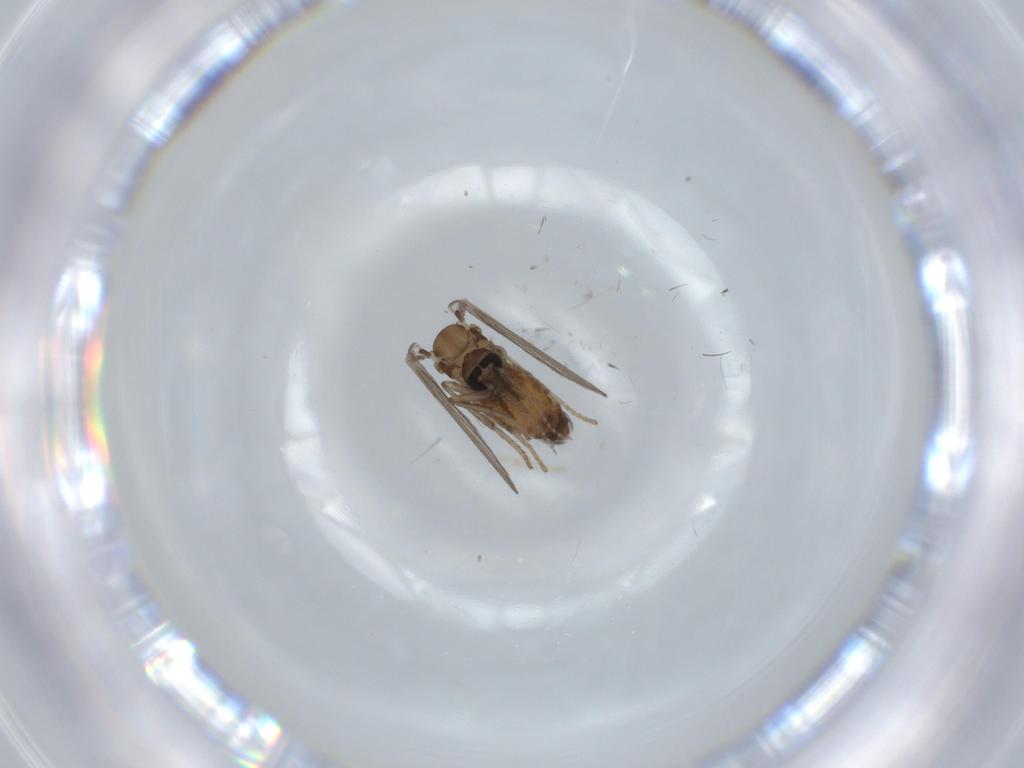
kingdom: Animalia
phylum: Arthropoda
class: Insecta
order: Diptera
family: Psychodidae
